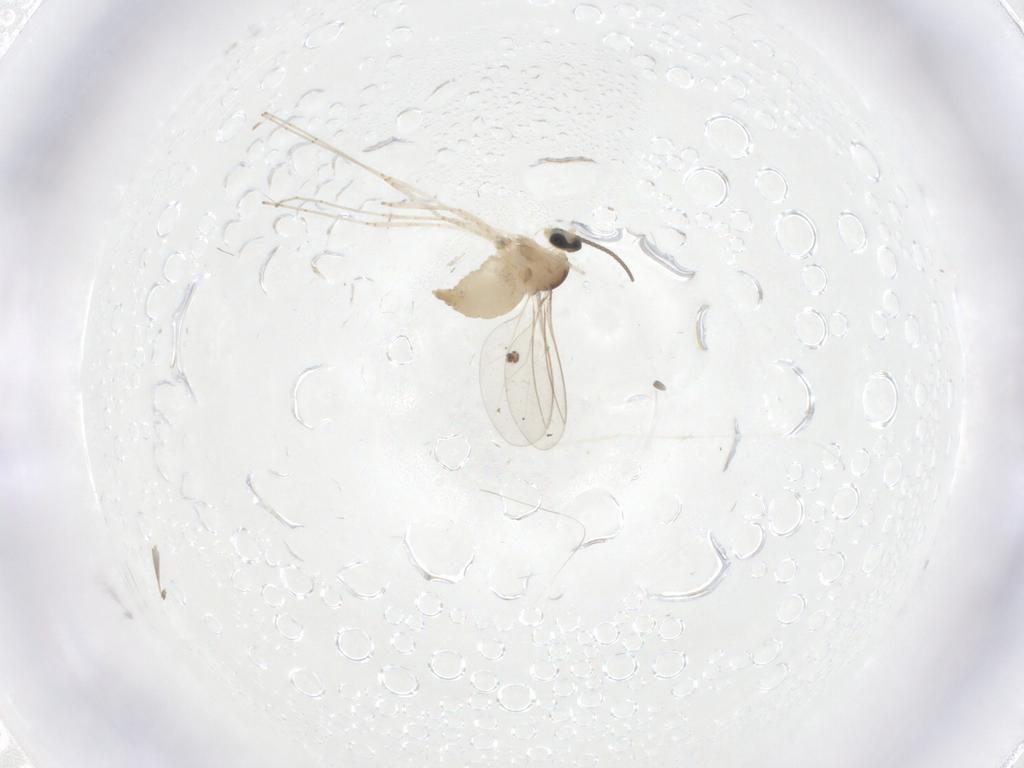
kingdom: Animalia
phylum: Arthropoda
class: Insecta
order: Diptera
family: Cecidomyiidae
